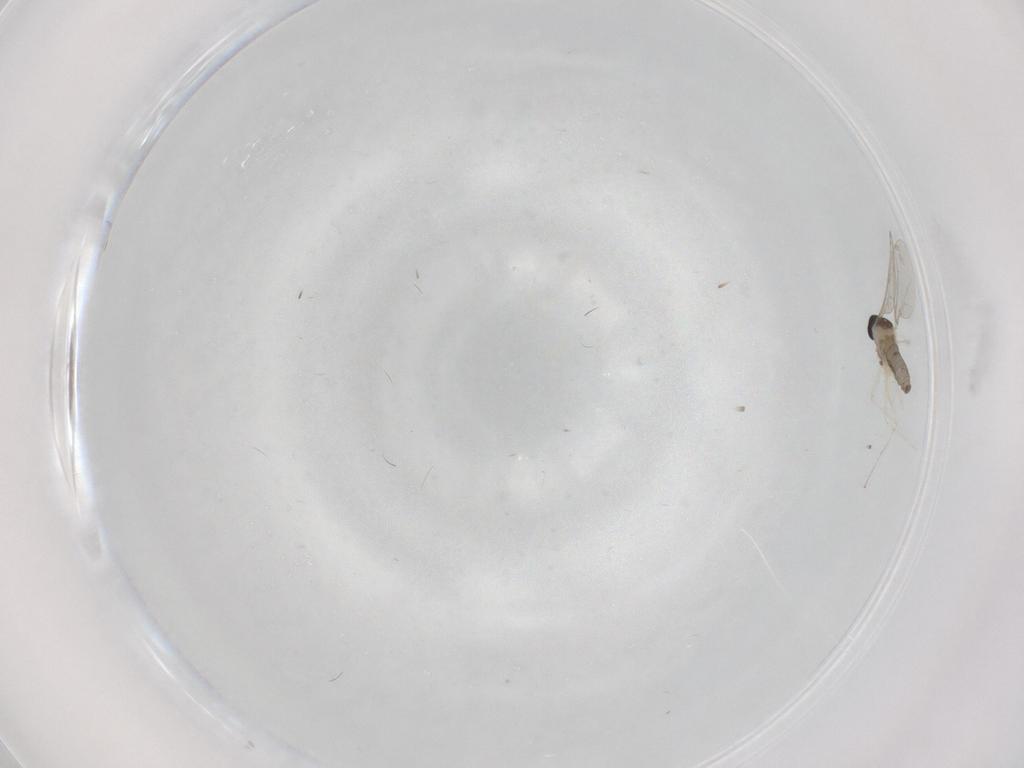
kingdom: Animalia
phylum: Arthropoda
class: Insecta
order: Diptera
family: Cecidomyiidae
